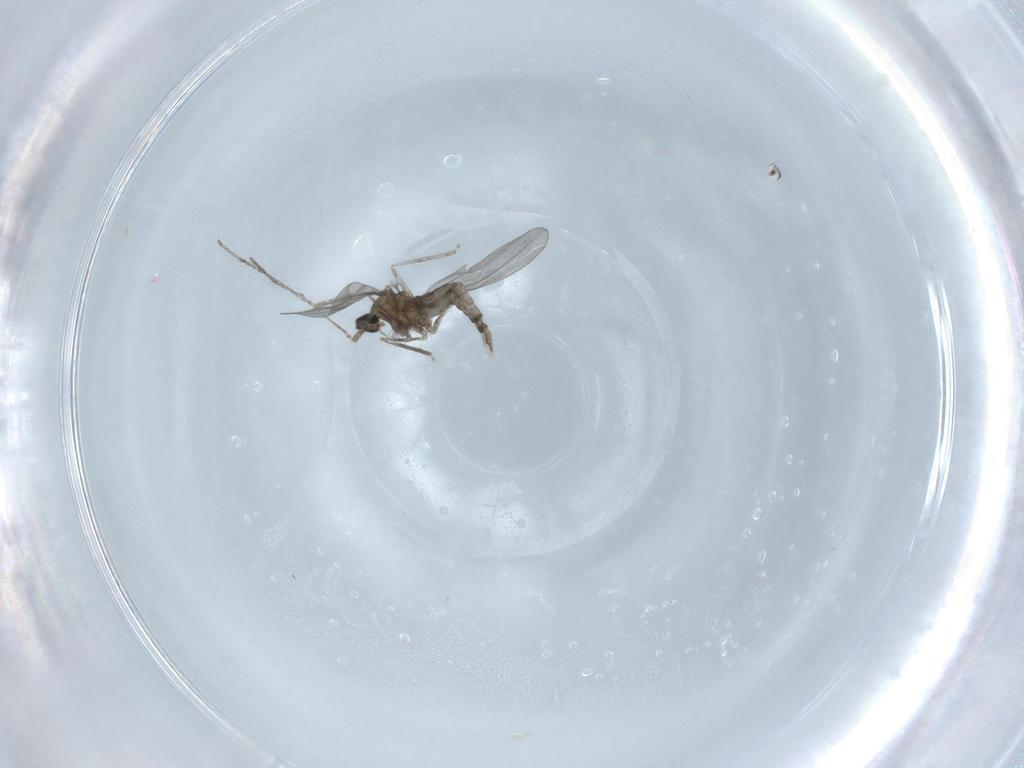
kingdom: Animalia
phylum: Arthropoda
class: Insecta
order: Diptera
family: Cecidomyiidae
